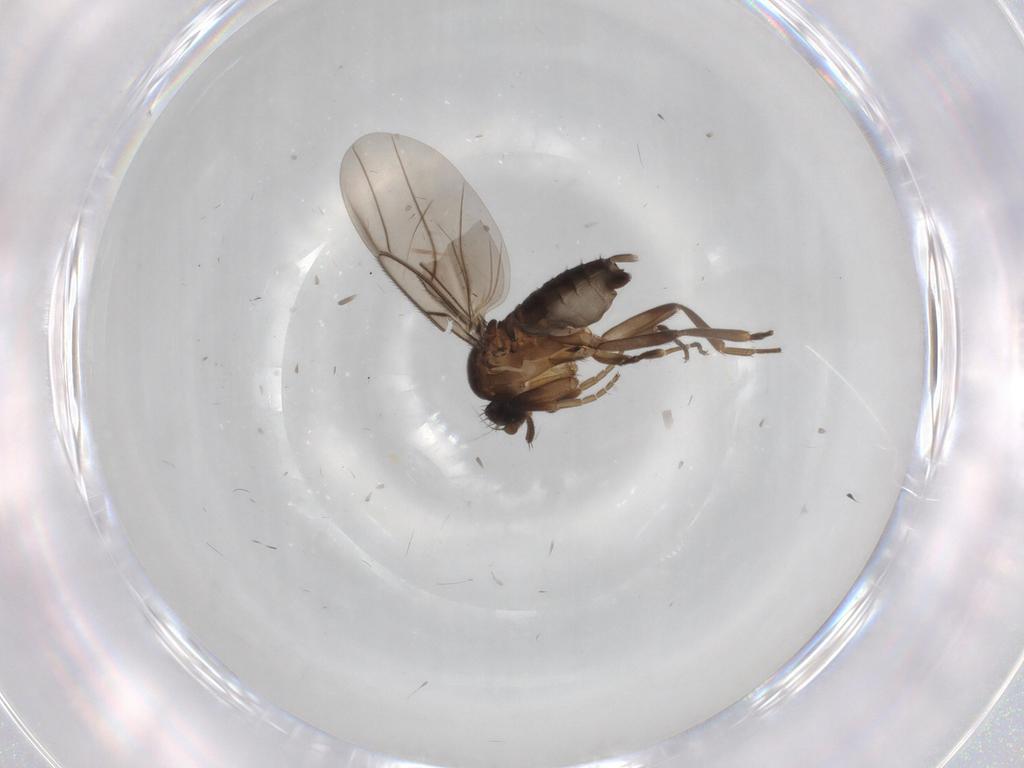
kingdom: Animalia
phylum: Arthropoda
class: Insecta
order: Diptera
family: Phoridae
